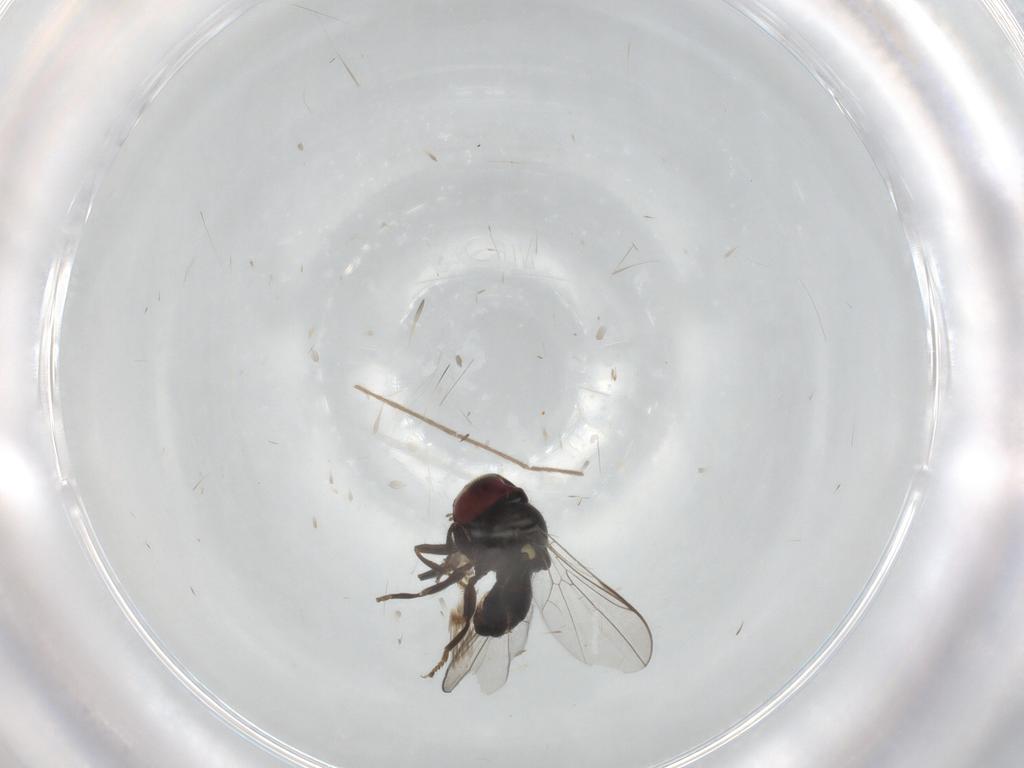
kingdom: Animalia
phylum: Arthropoda
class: Insecta
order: Diptera
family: Pipunculidae
